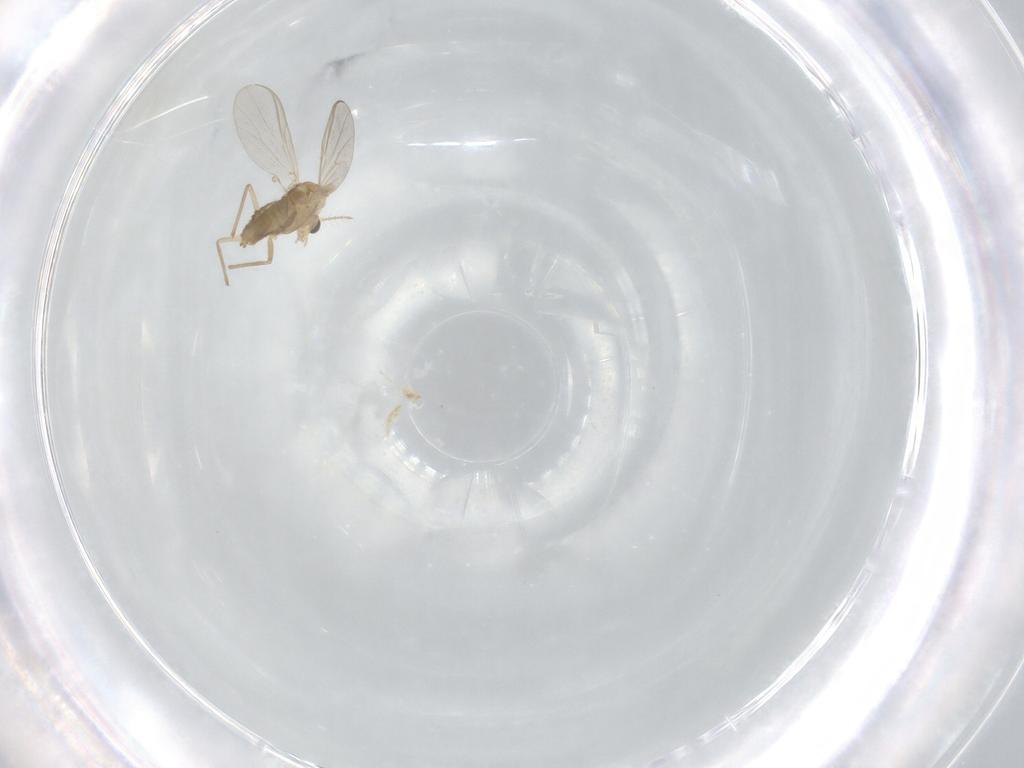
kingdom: Animalia
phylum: Arthropoda
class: Insecta
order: Diptera
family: Chironomidae
